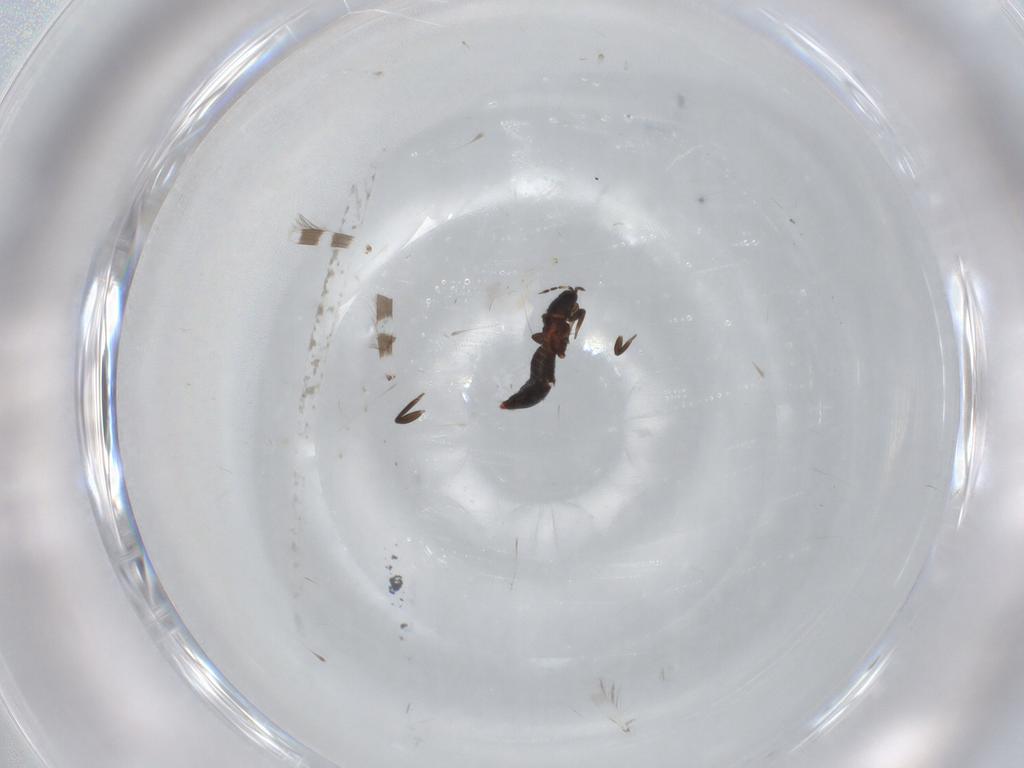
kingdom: Animalia
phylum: Arthropoda
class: Insecta
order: Thysanoptera
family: Aeolothripidae
